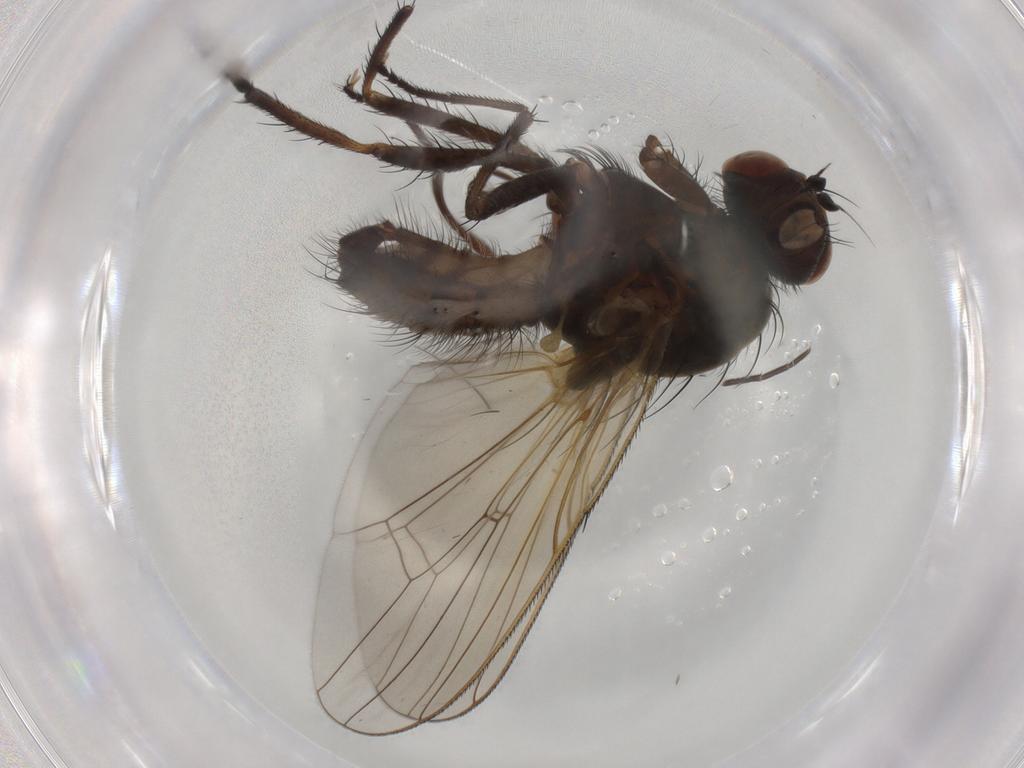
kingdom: Animalia
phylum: Arthropoda
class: Insecta
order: Diptera
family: Anthomyiidae
